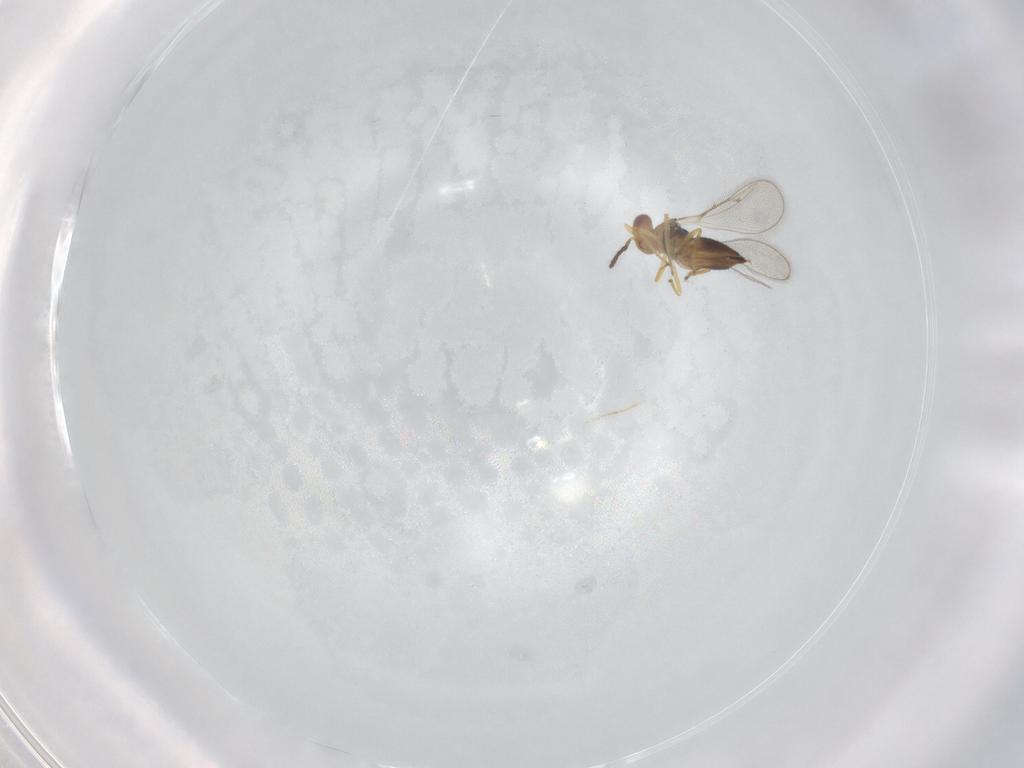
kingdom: Animalia
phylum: Arthropoda
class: Insecta
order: Hymenoptera
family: Eulophidae
